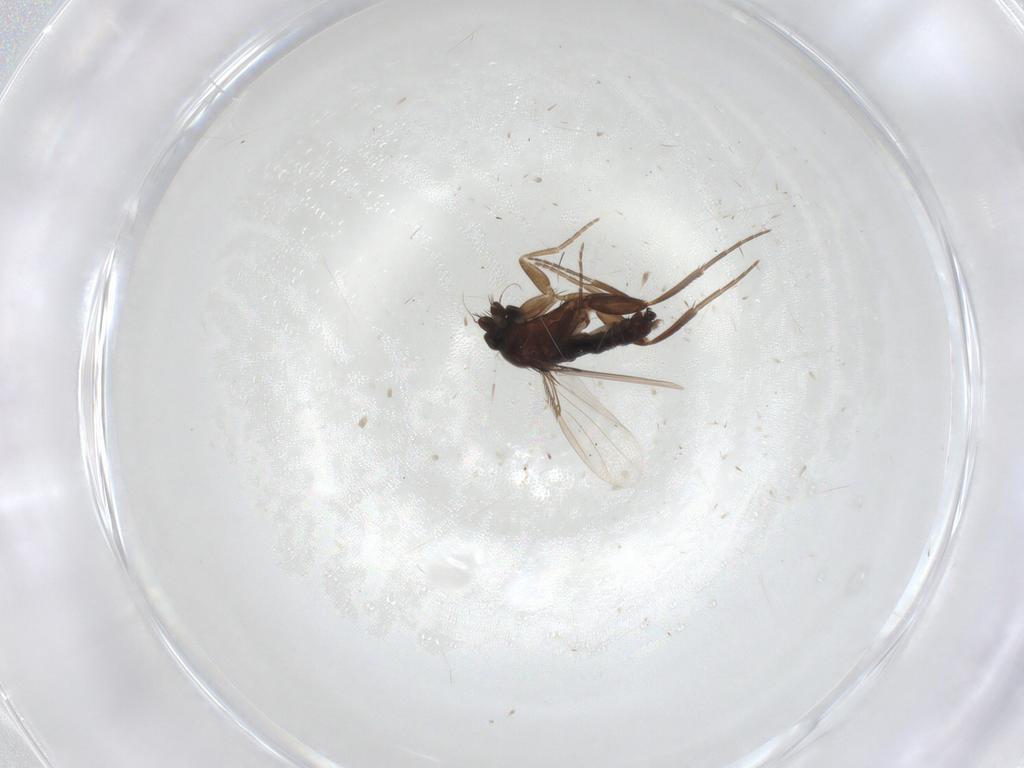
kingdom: Animalia
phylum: Arthropoda
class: Insecta
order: Diptera
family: Phoridae
